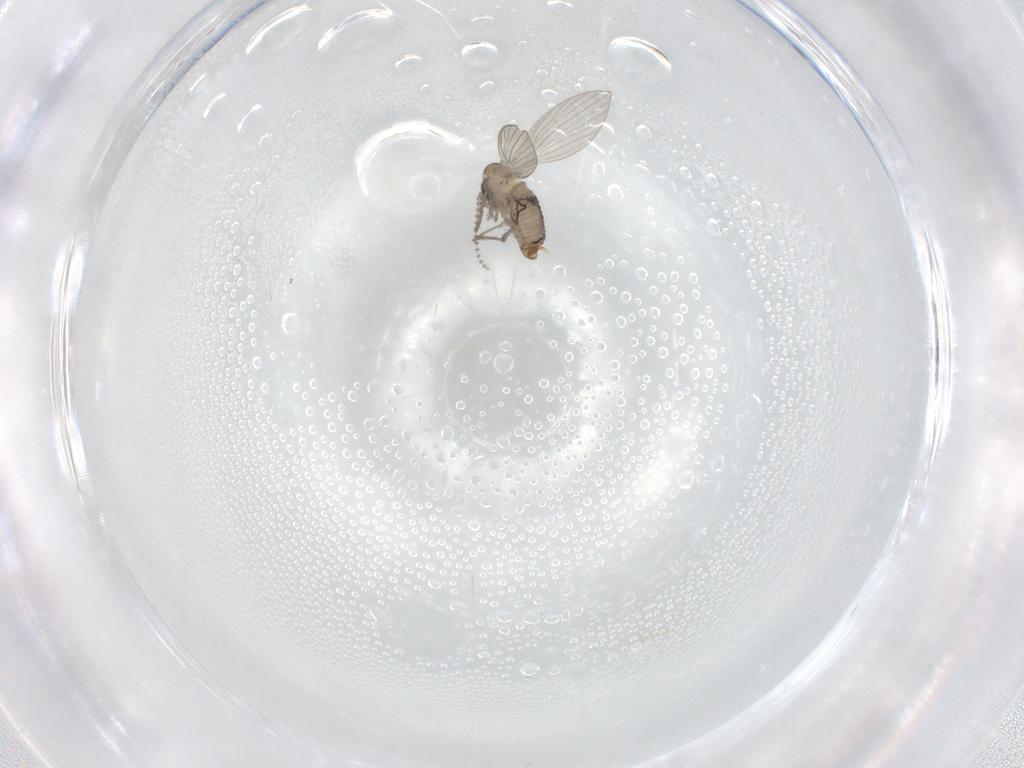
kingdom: Animalia
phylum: Arthropoda
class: Insecta
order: Diptera
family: Psychodidae
